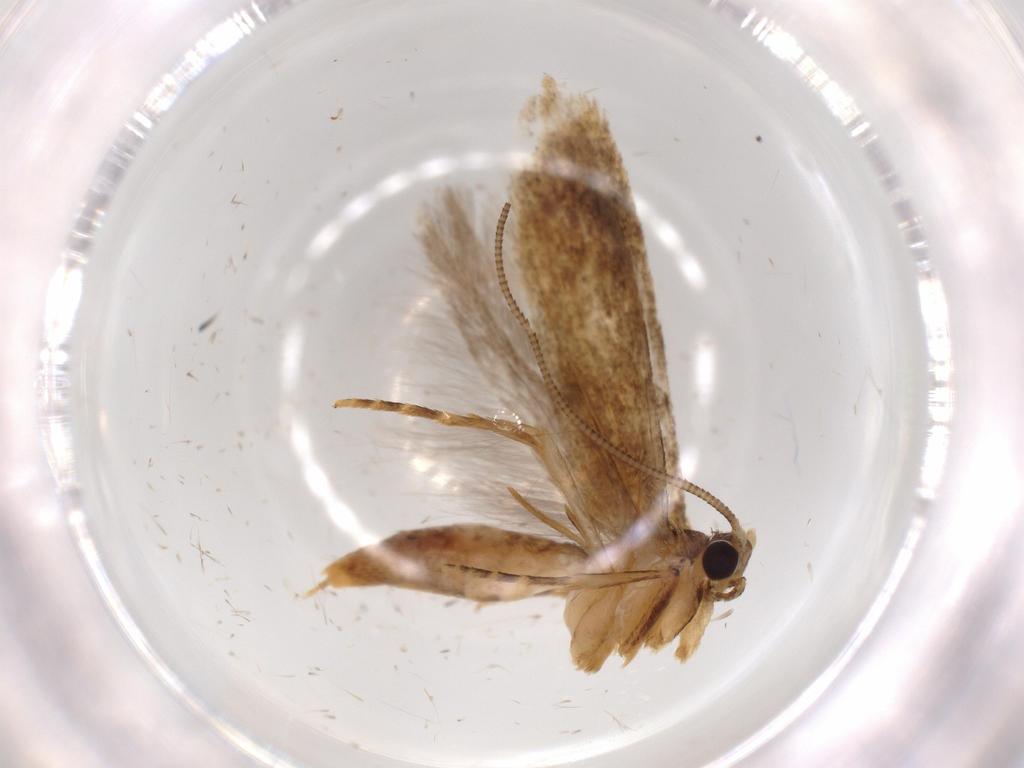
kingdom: Animalia
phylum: Arthropoda
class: Insecta
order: Lepidoptera
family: Tineidae
